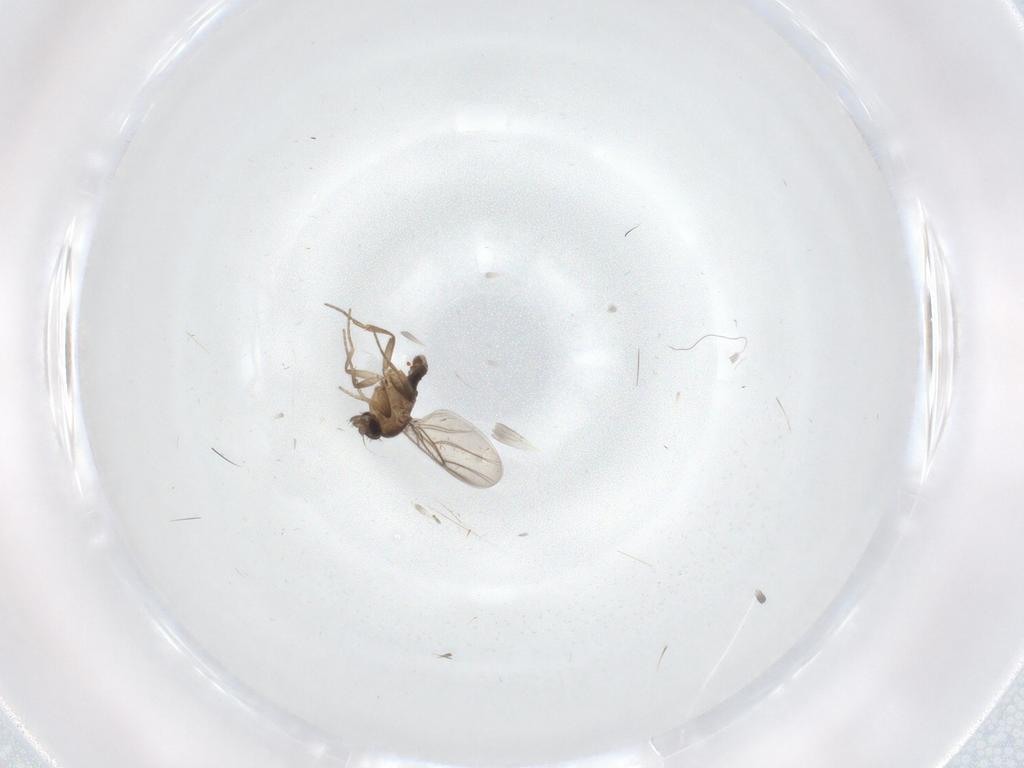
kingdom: Animalia
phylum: Arthropoda
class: Insecta
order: Diptera
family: Phoridae
